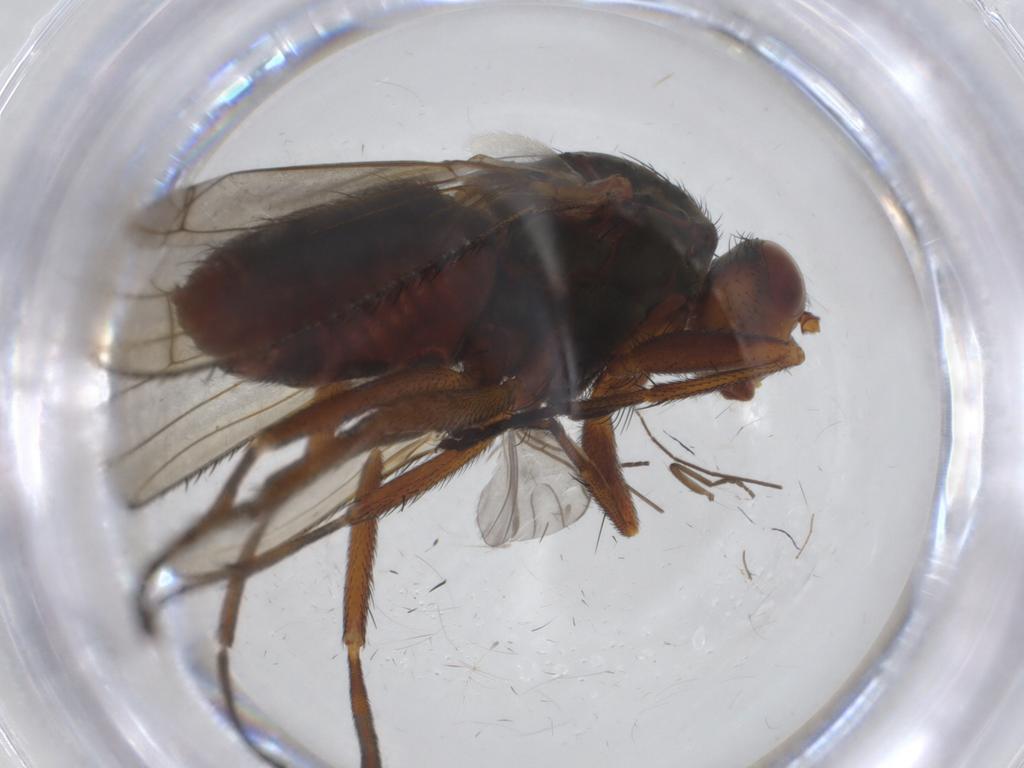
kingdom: Animalia
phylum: Arthropoda
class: Insecta
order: Diptera
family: Heleomyzidae
